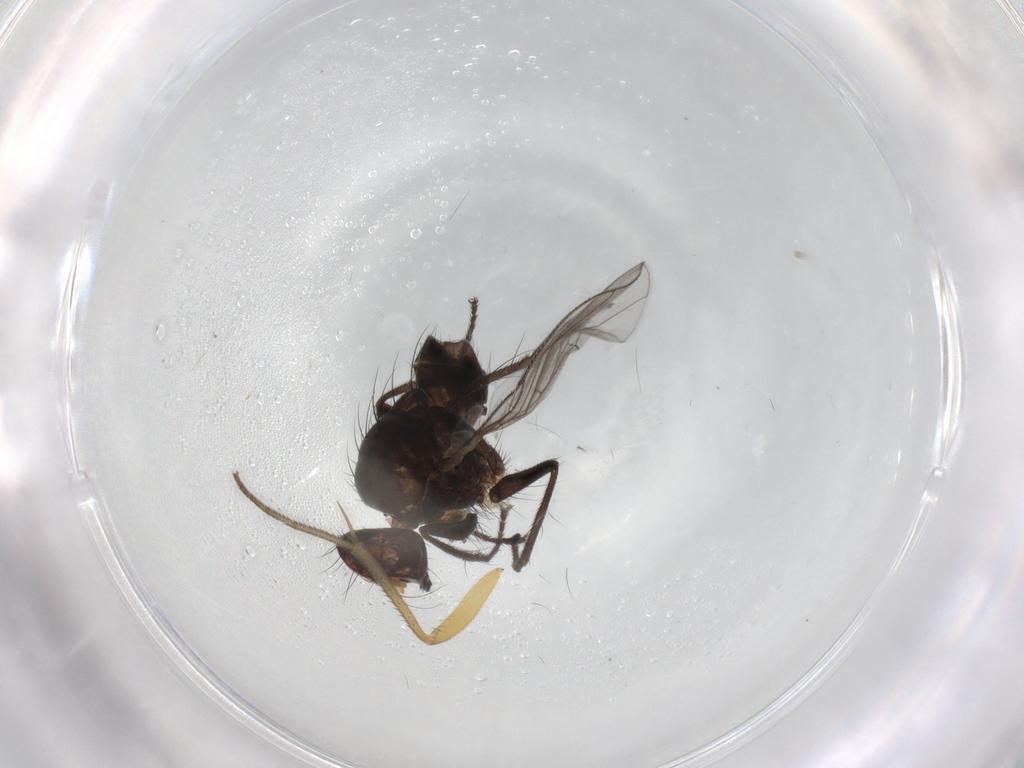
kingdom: Animalia
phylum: Arthropoda
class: Insecta
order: Diptera
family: Muscidae
